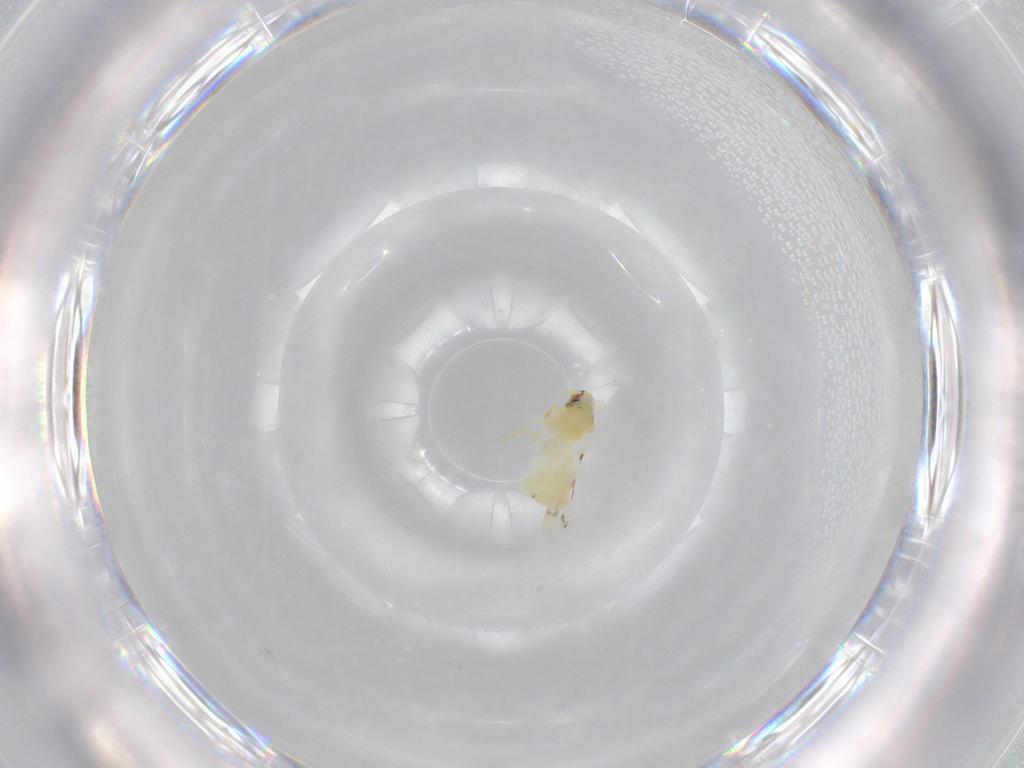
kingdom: Animalia
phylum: Arthropoda
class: Insecta
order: Hemiptera
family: Aleyrodidae
